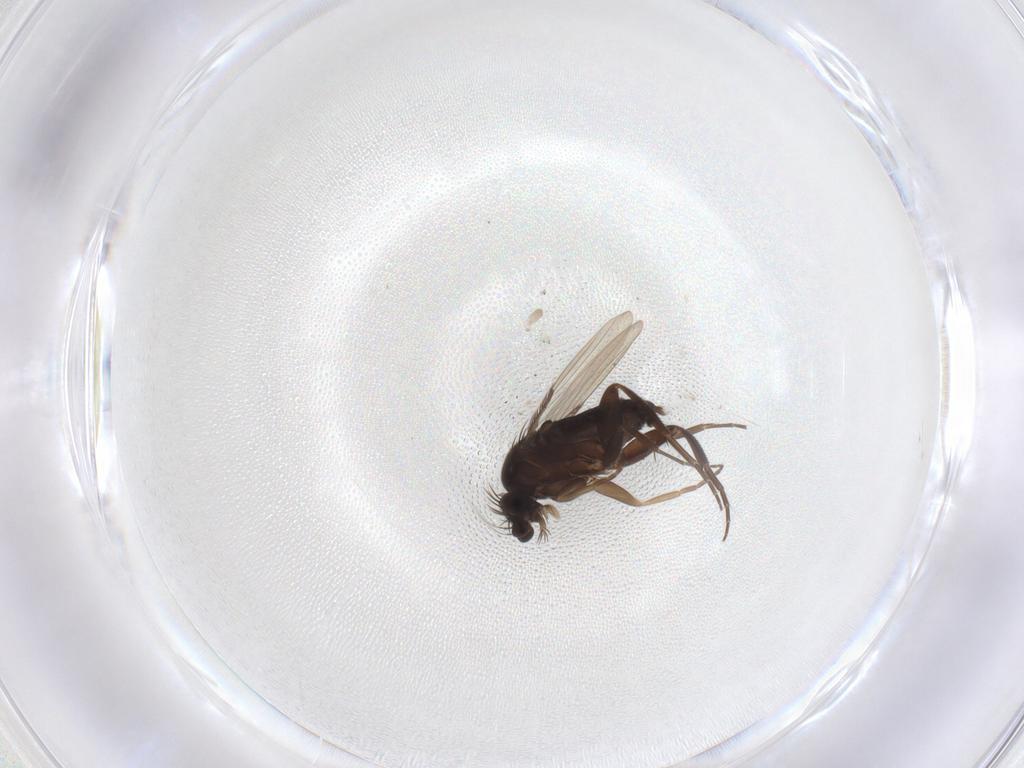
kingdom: Animalia
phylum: Arthropoda
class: Insecta
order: Diptera
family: Phoridae
